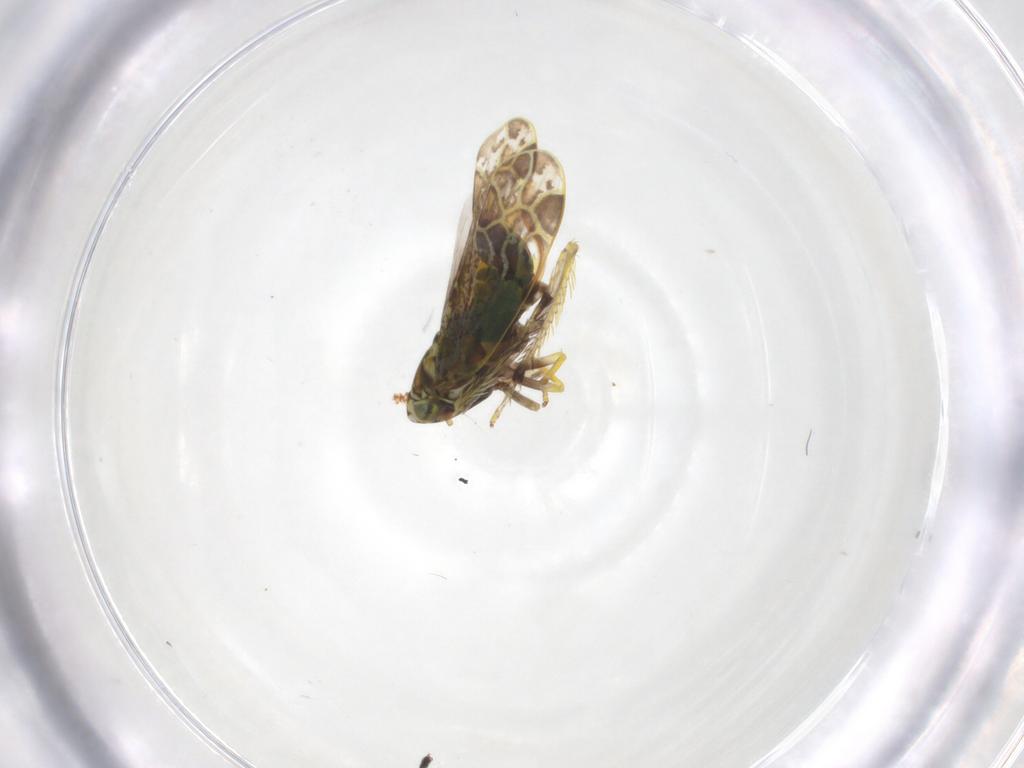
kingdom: Animalia
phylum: Arthropoda
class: Insecta
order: Hemiptera
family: Cicadellidae
